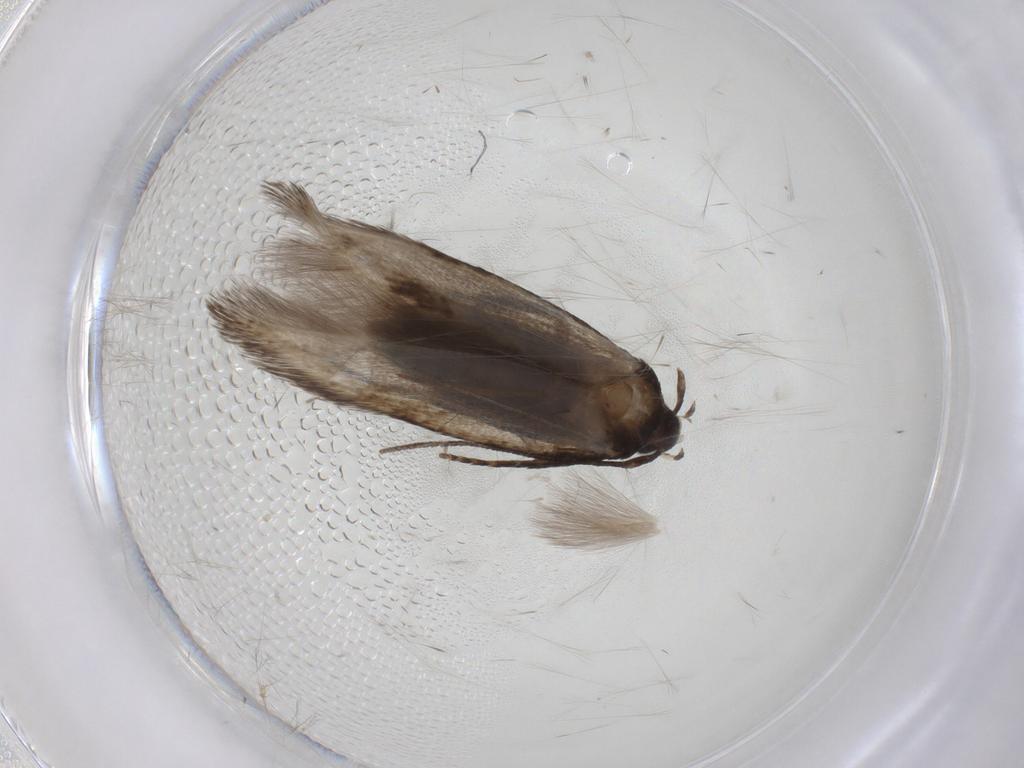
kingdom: Animalia
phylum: Arthropoda
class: Insecta
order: Lepidoptera
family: Cosmopterigidae
